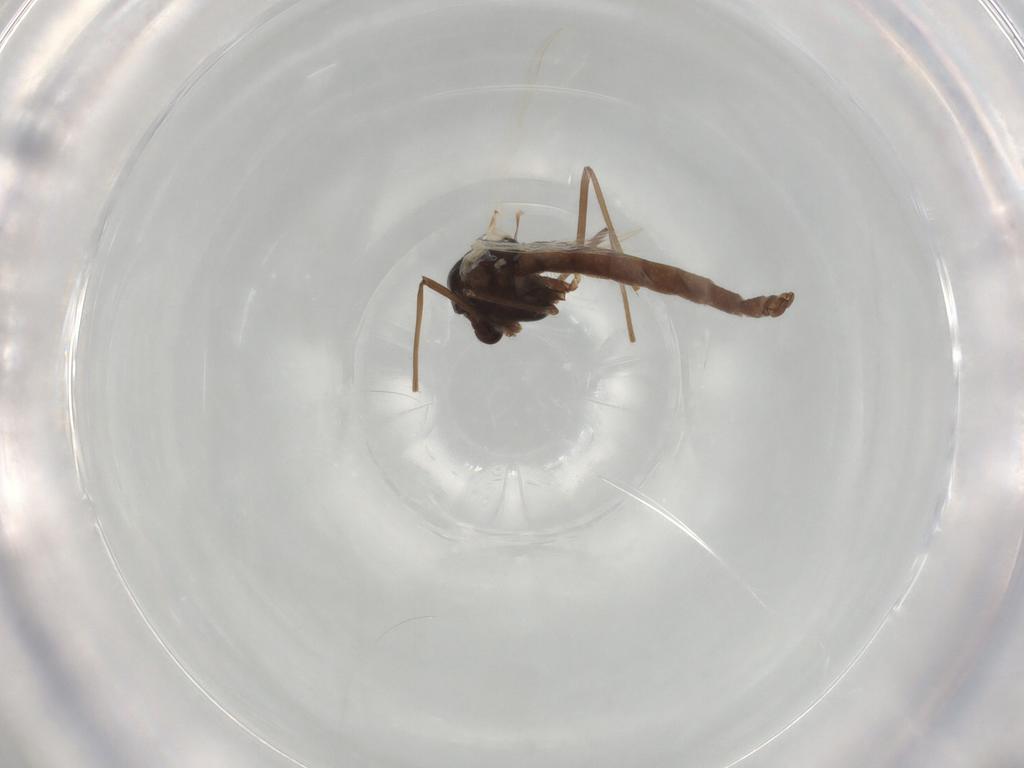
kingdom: Animalia
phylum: Arthropoda
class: Insecta
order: Diptera
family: Chironomidae
